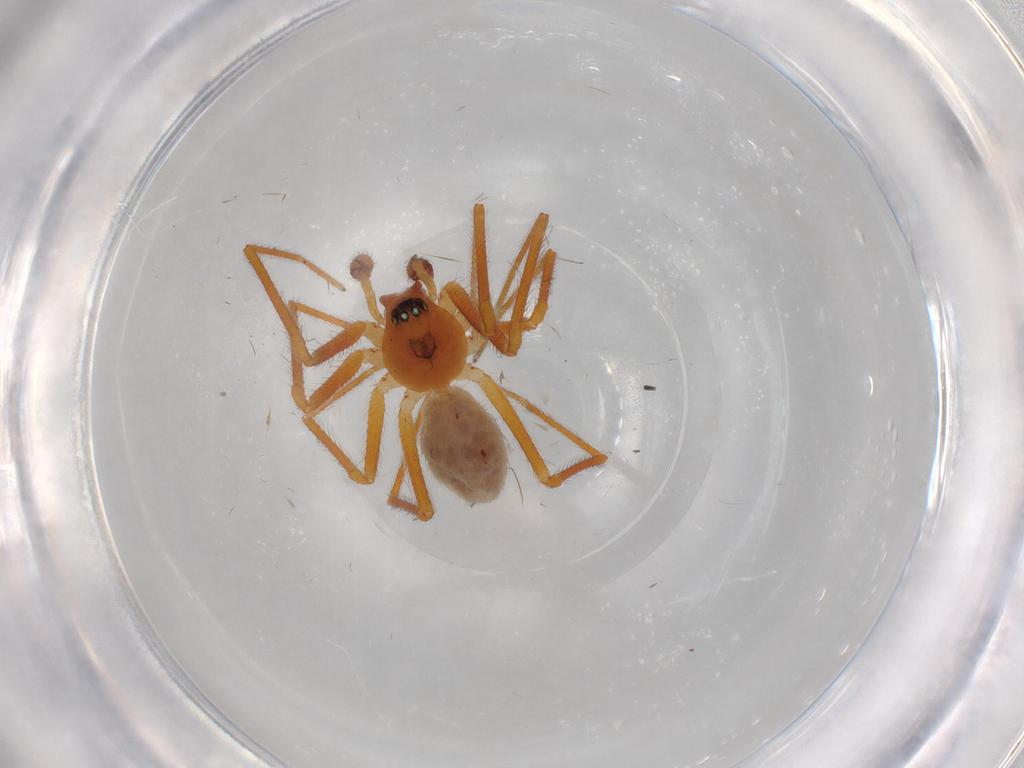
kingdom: Animalia
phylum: Arthropoda
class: Arachnida
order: Araneae
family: Linyphiidae
